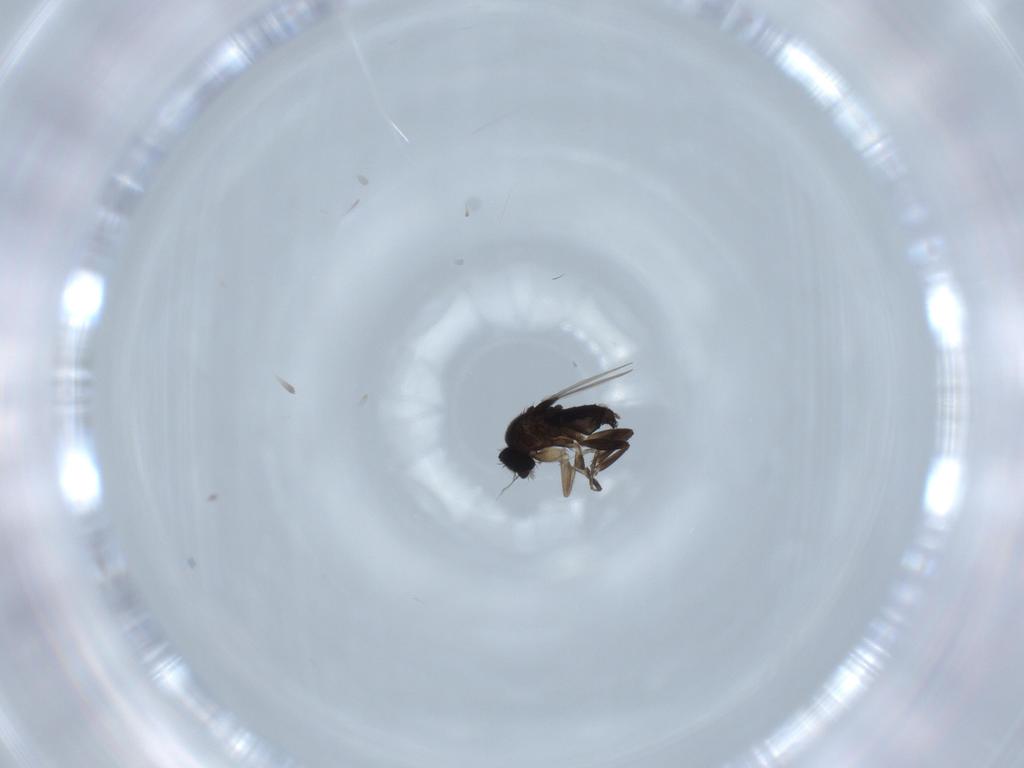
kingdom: Animalia
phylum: Arthropoda
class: Insecta
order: Diptera
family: Phoridae
